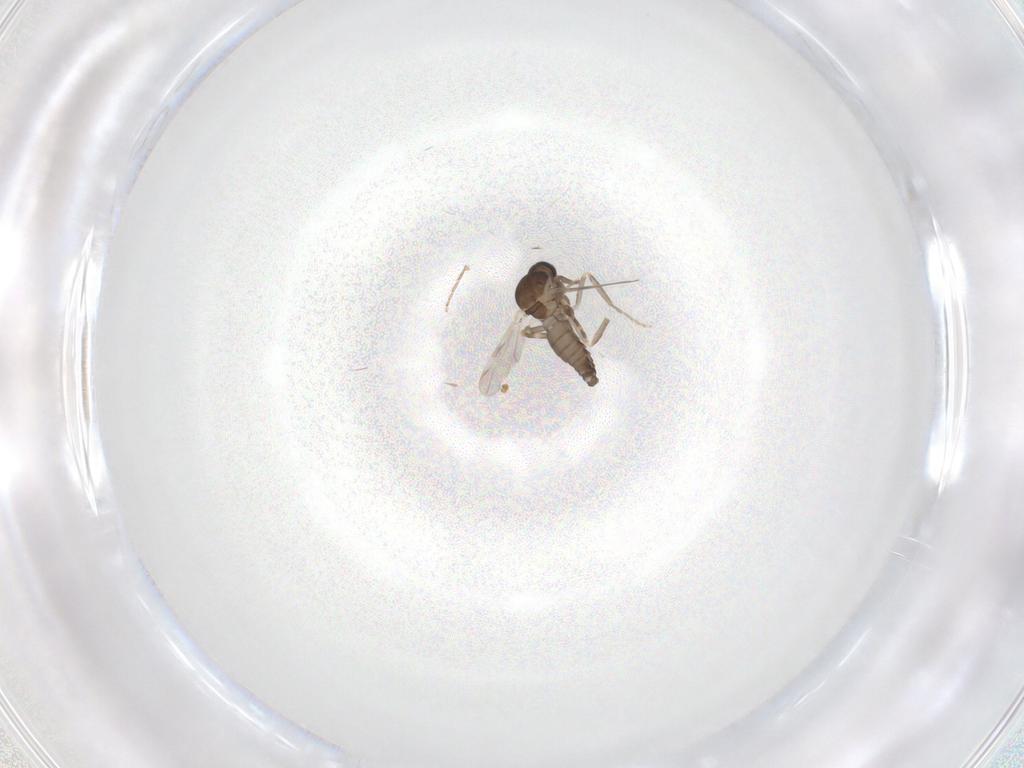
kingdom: Animalia
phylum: Arthropoda
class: Insecta
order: Diptera
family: Ceratopogonidae
